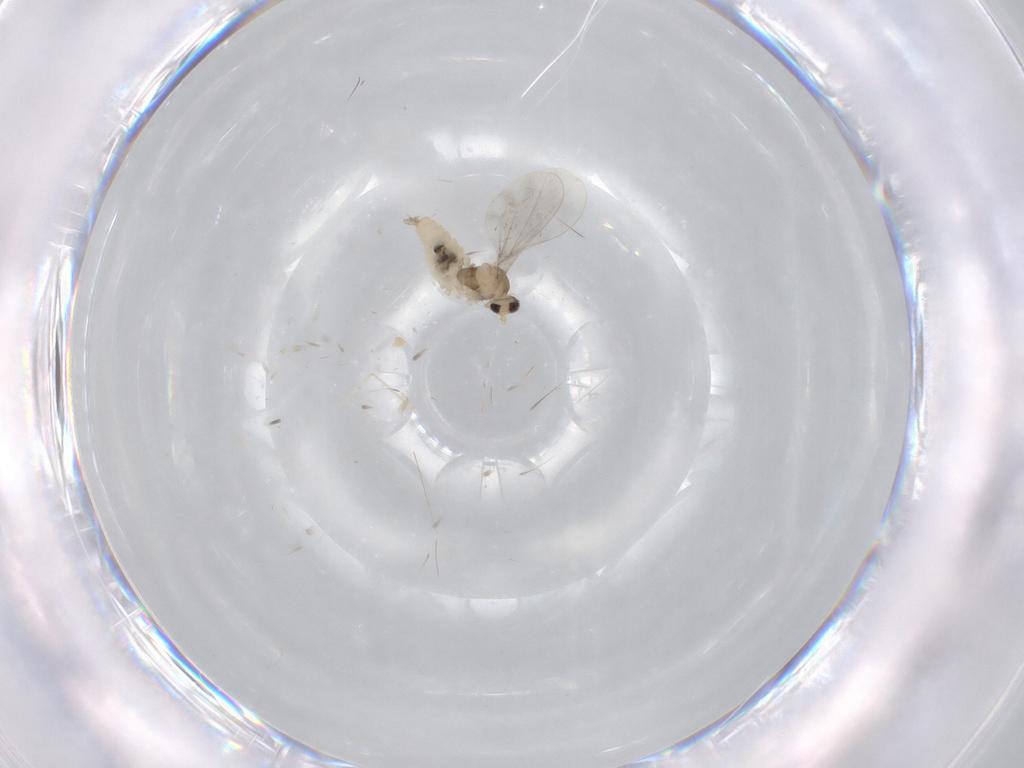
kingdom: Animalia
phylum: Arthropoda
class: Insecta
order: Diptera
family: Cecidomyiidae
